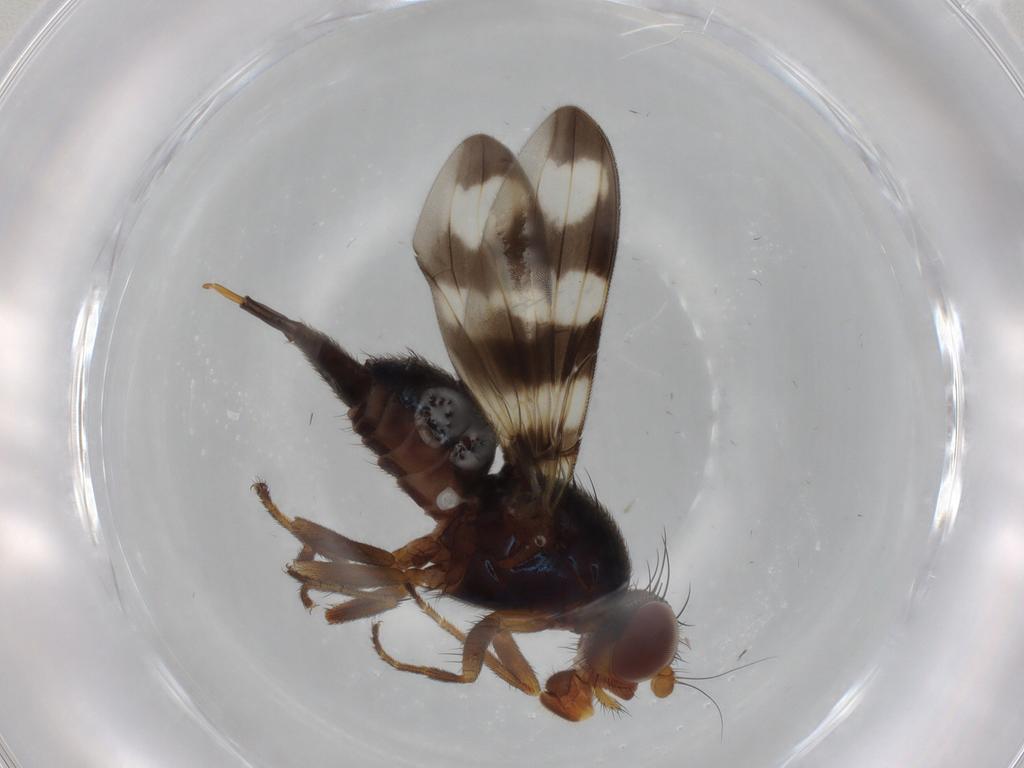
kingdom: Animalia
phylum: Arthropoda
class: Insecta
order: Diptera
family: Ulidiidae
